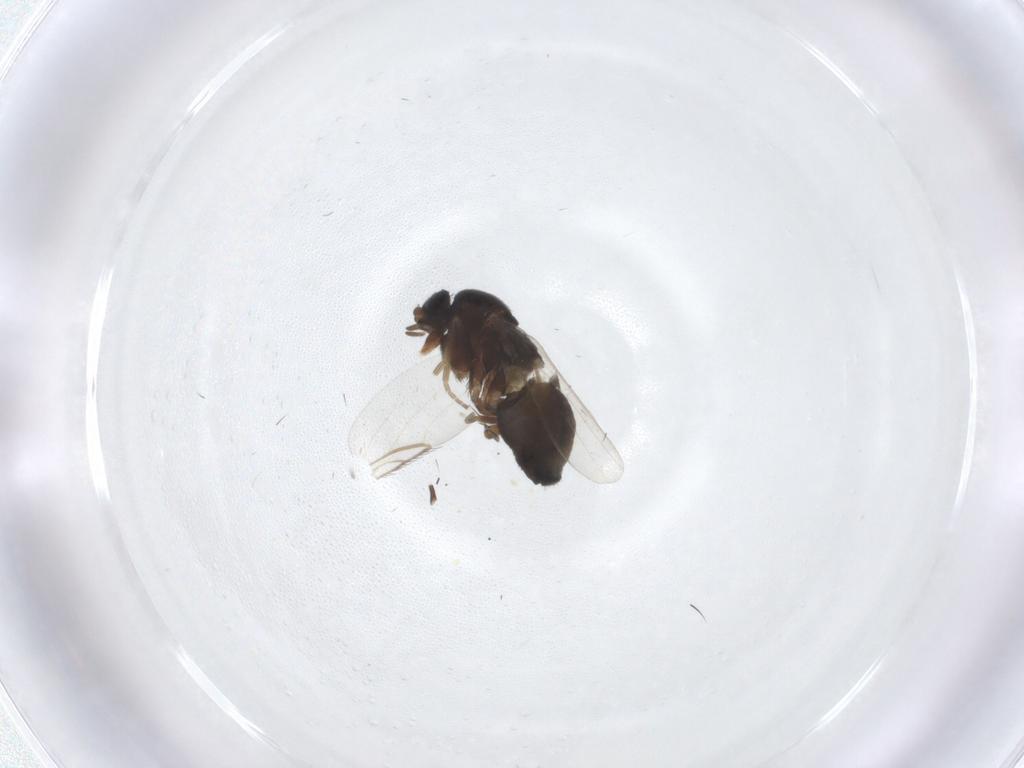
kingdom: Animalia
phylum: Arthropoda
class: Insecta
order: Diptera
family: Phoridae
